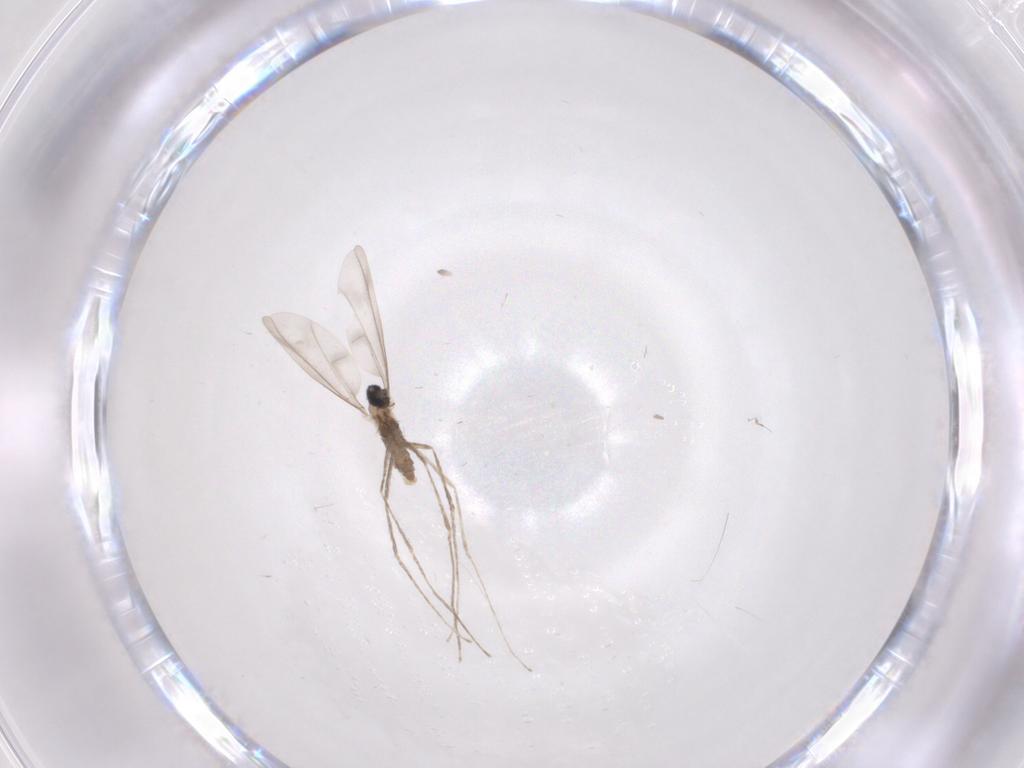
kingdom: Animalia
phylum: Arthropoda
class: Insecta
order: Diptera
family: Cecidomyiidae
